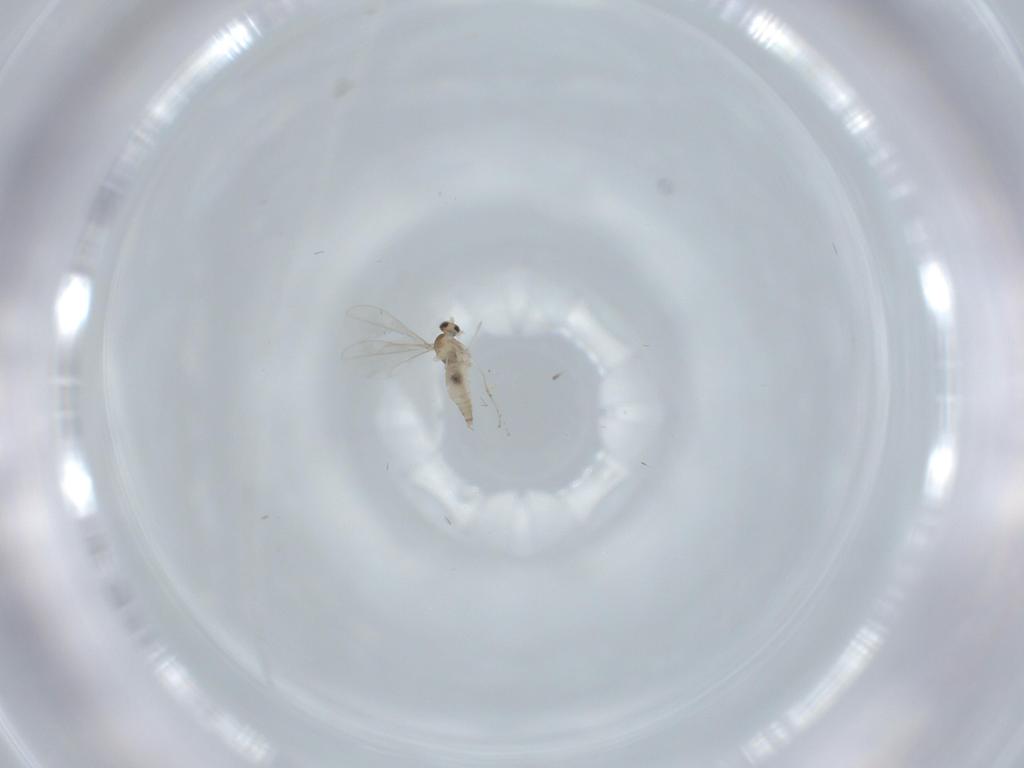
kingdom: Animalia
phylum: Arthropoda
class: Insecta
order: Diptera
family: Cecidomyiidae
